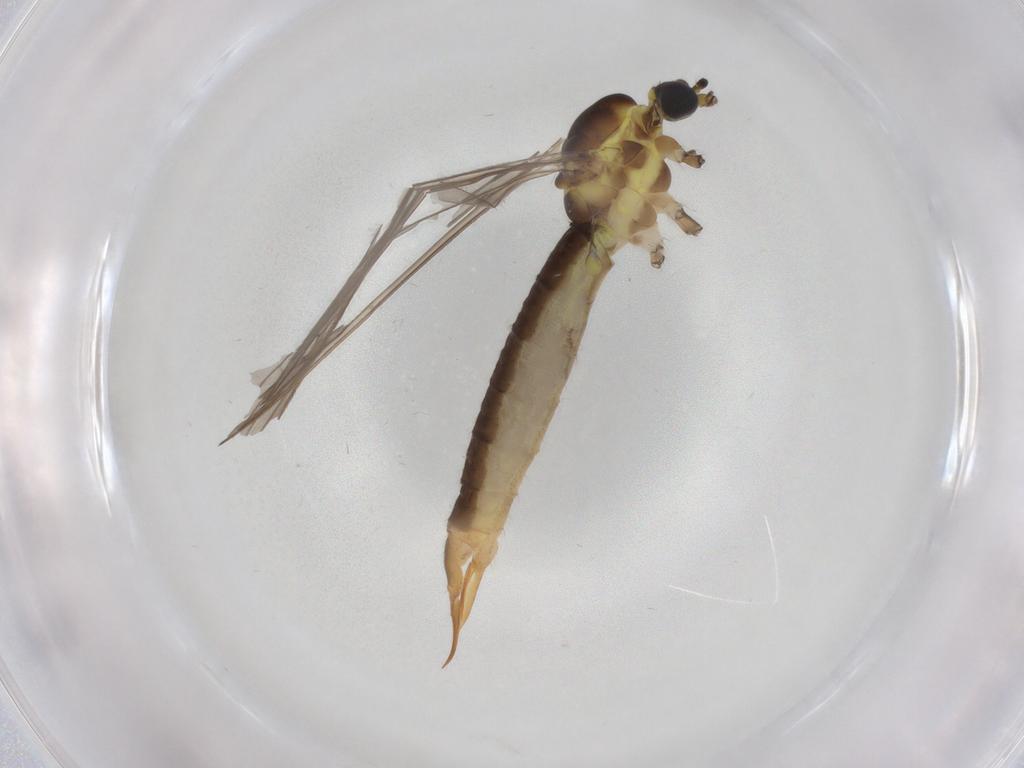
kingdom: Animalia
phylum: Arthropoda
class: Insecta
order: Diptera
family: Limoniidae
